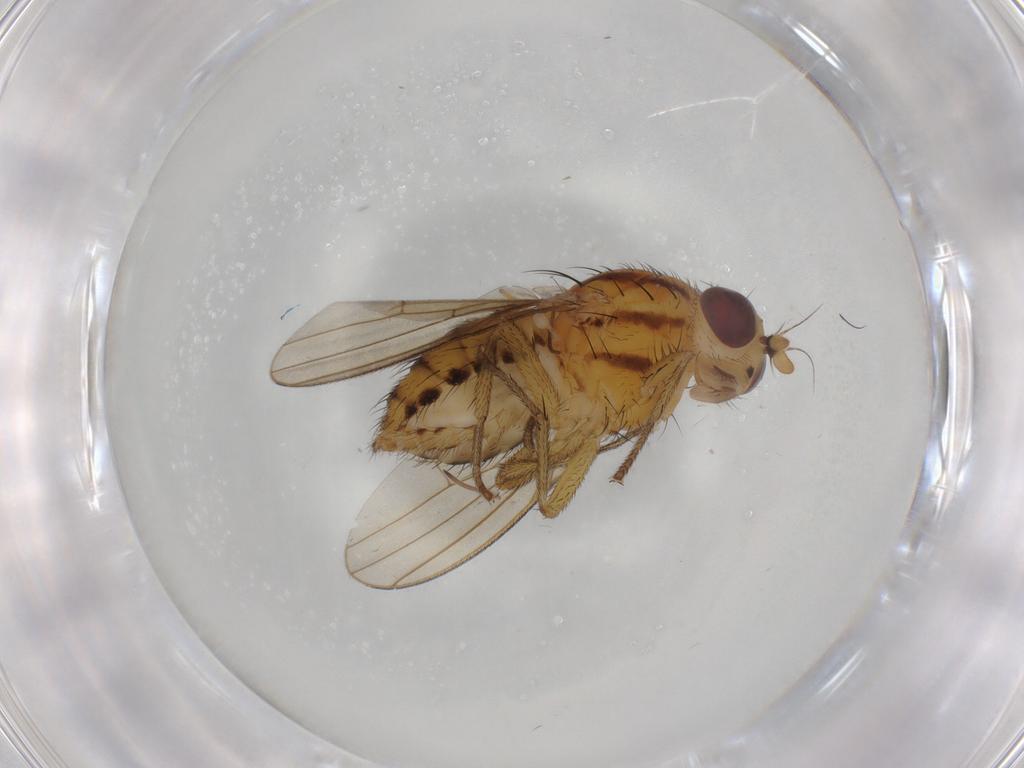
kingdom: Animalia
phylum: Arthropoda
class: Insecta
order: Diptera
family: Sciaridae
